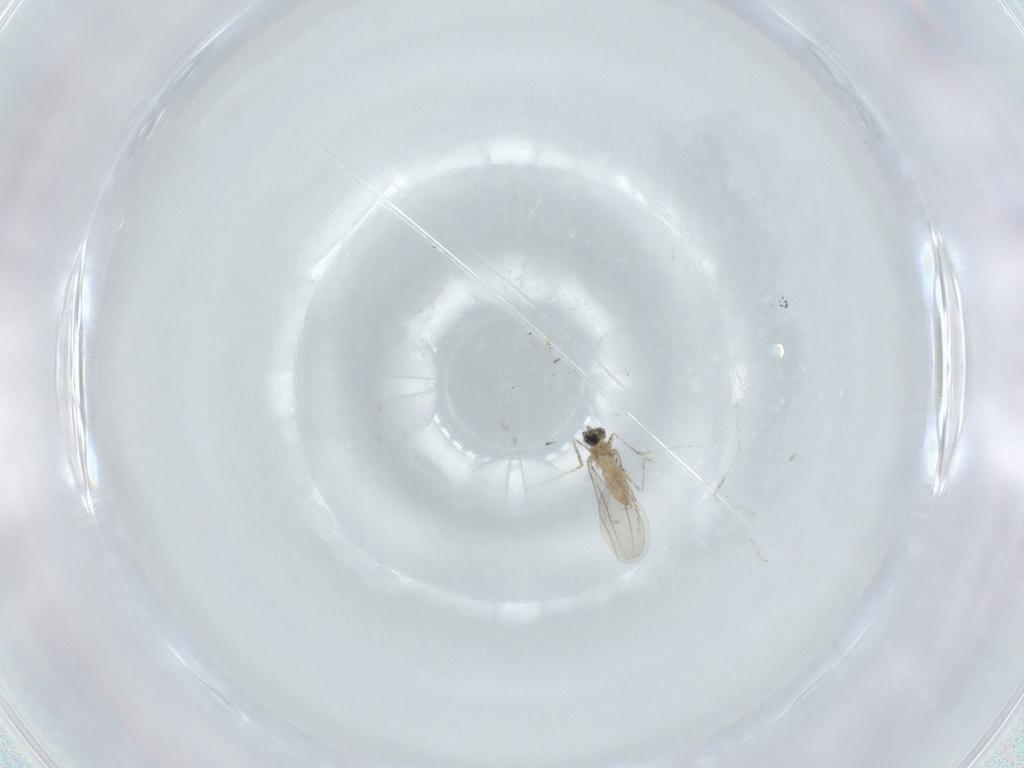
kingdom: Animalia
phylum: Arthropoda
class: Insecta
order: Diptera
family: Cecidomyiidae
